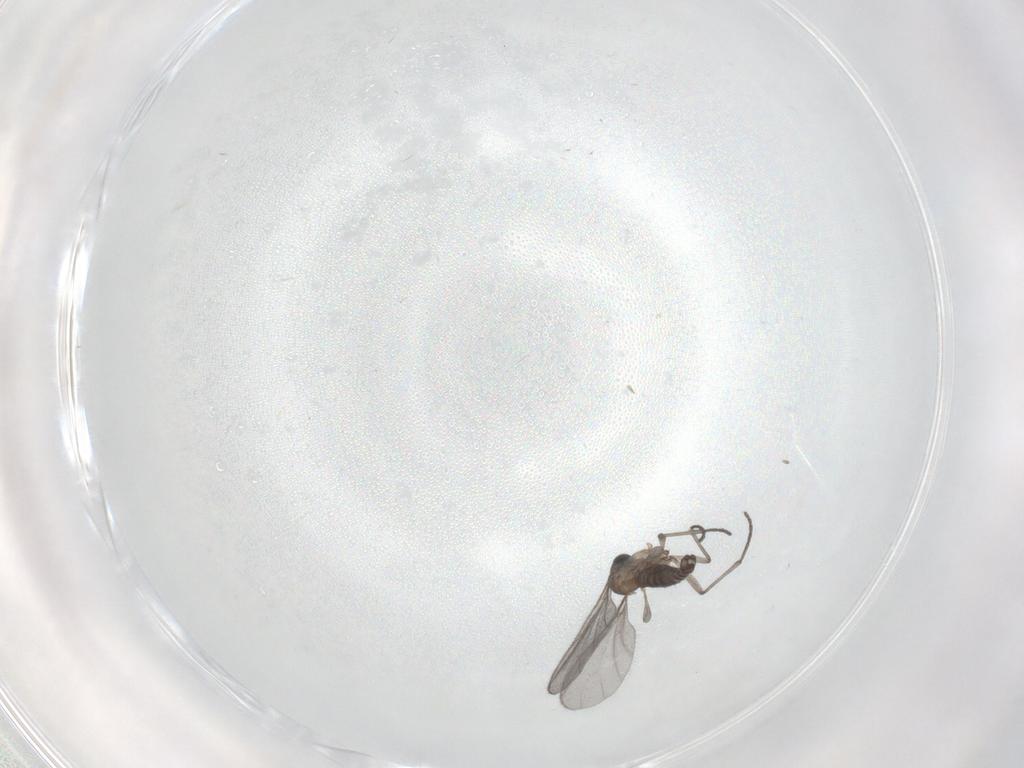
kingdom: Animalia
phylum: Arthropoda
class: Insecta
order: Diptera
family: Sciaridae
